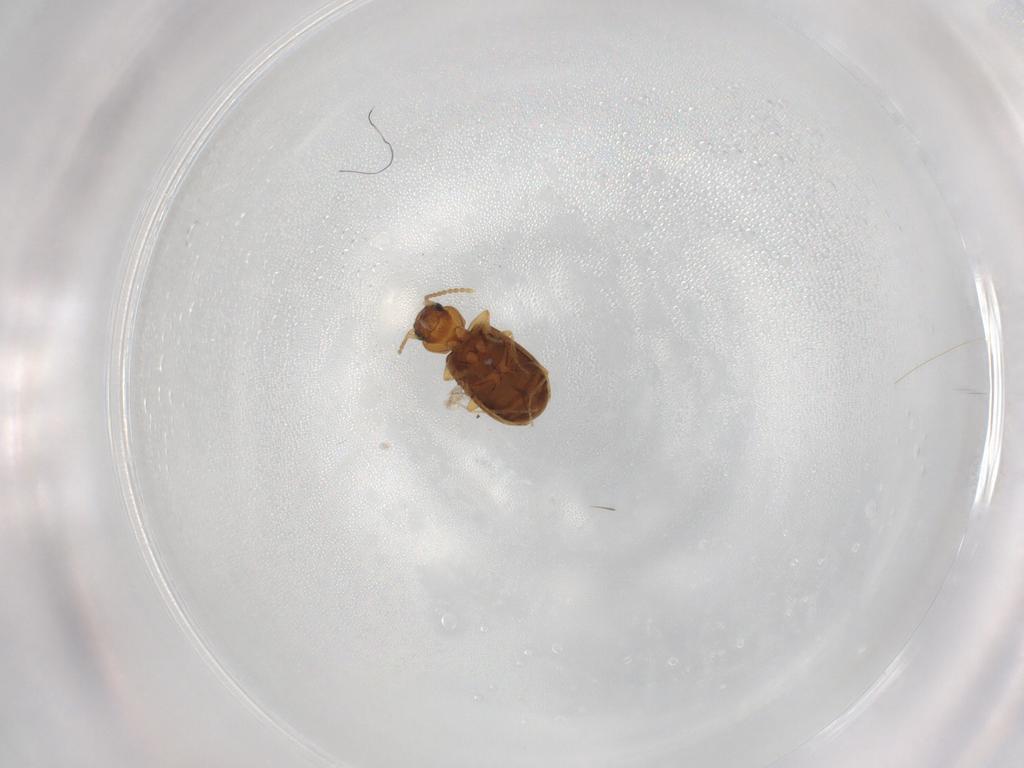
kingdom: Animalia
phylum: Arthropoda
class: Insecta
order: Coleoptera
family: Carabidae
